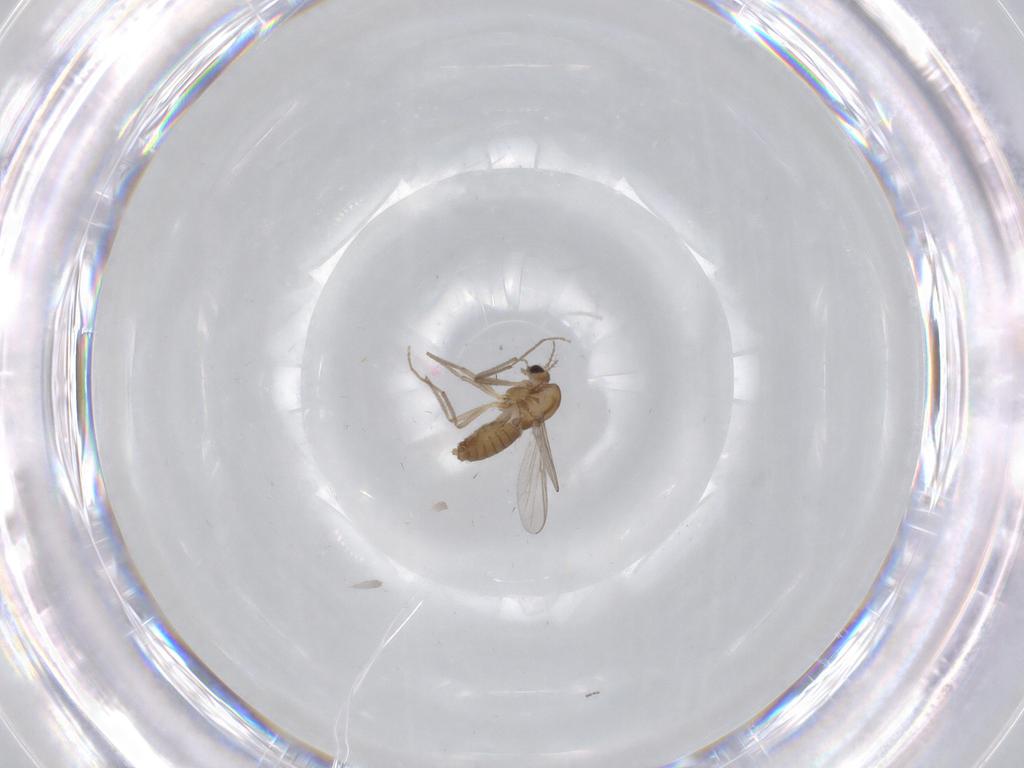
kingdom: Animalia
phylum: Arthropoda
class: Insecta
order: Diptera
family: Chironomidae
